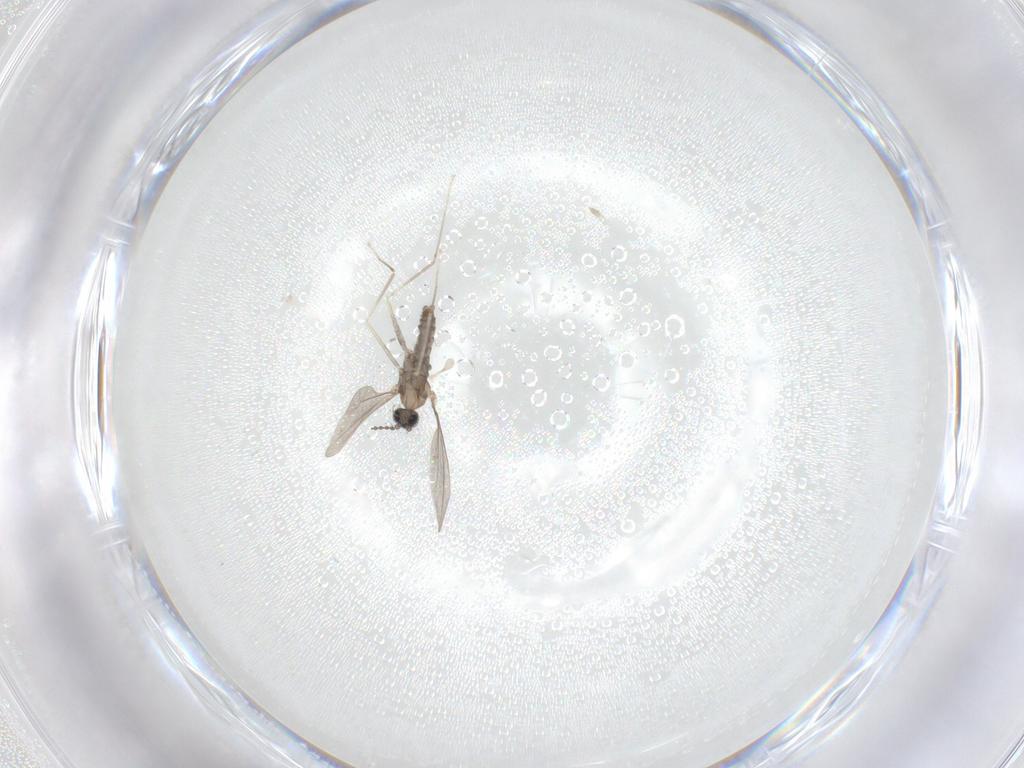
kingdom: Animalia
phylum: Arthropoda
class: Insecta
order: Diptera
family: Cecidomyiidae
